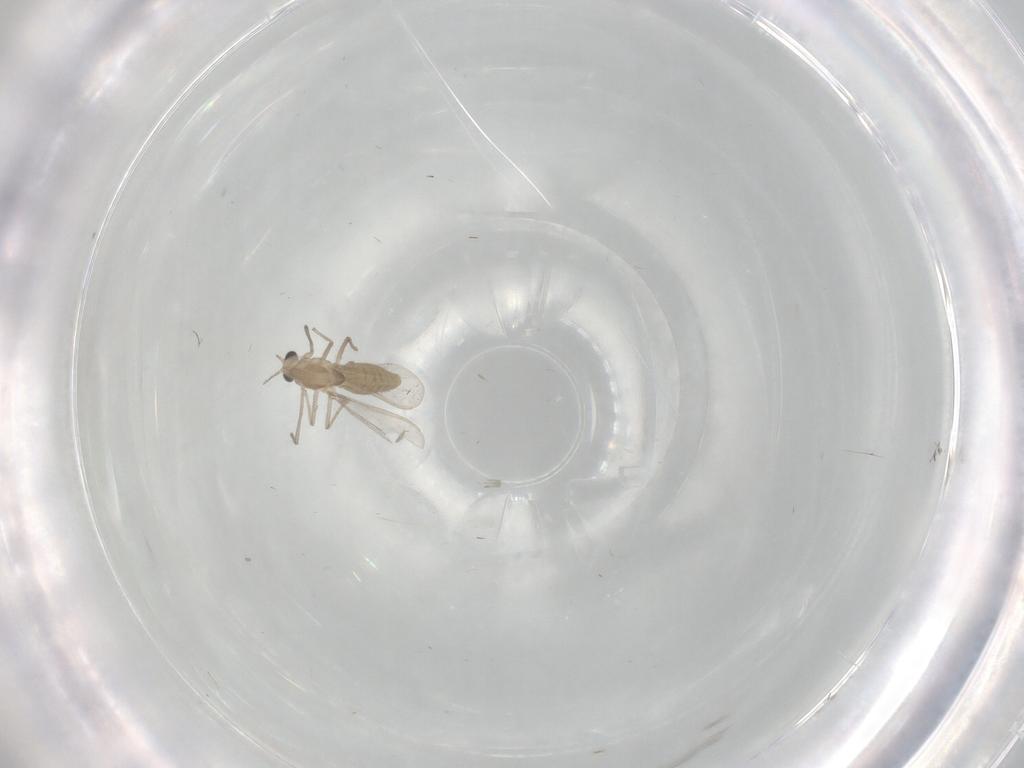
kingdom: Animalia
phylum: Arthropoda
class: Insecta
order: Diptera
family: Chironomidae
